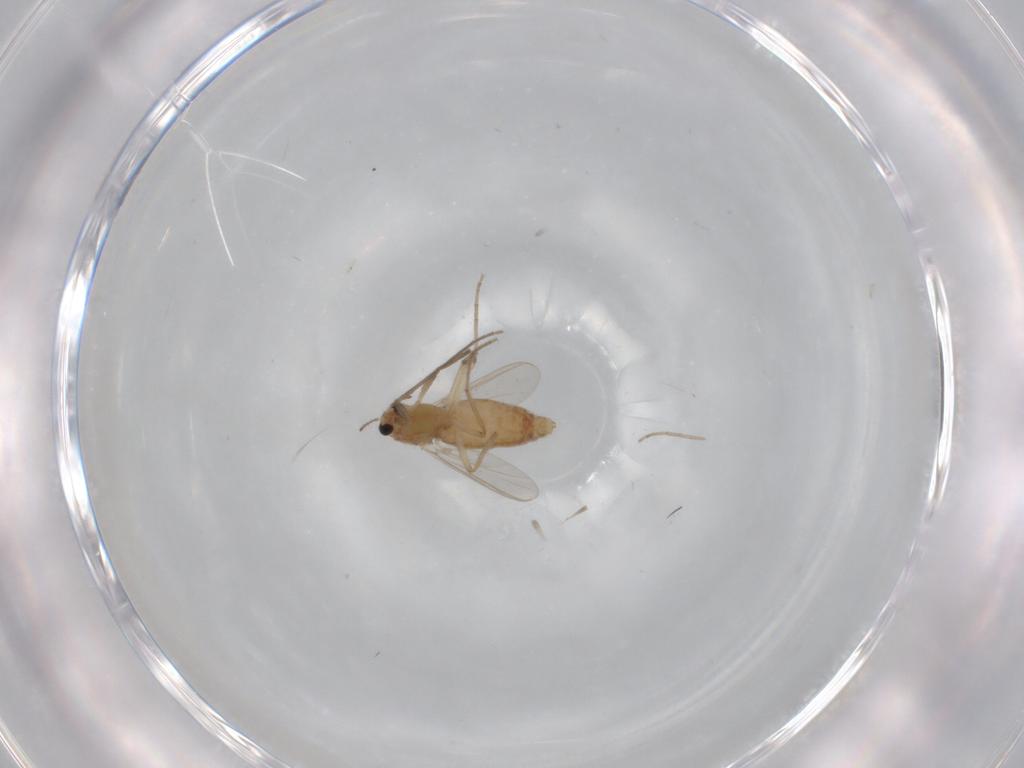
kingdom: Animalia
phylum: Arthropoda
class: Insecta
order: Diptera
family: Chironomidae
